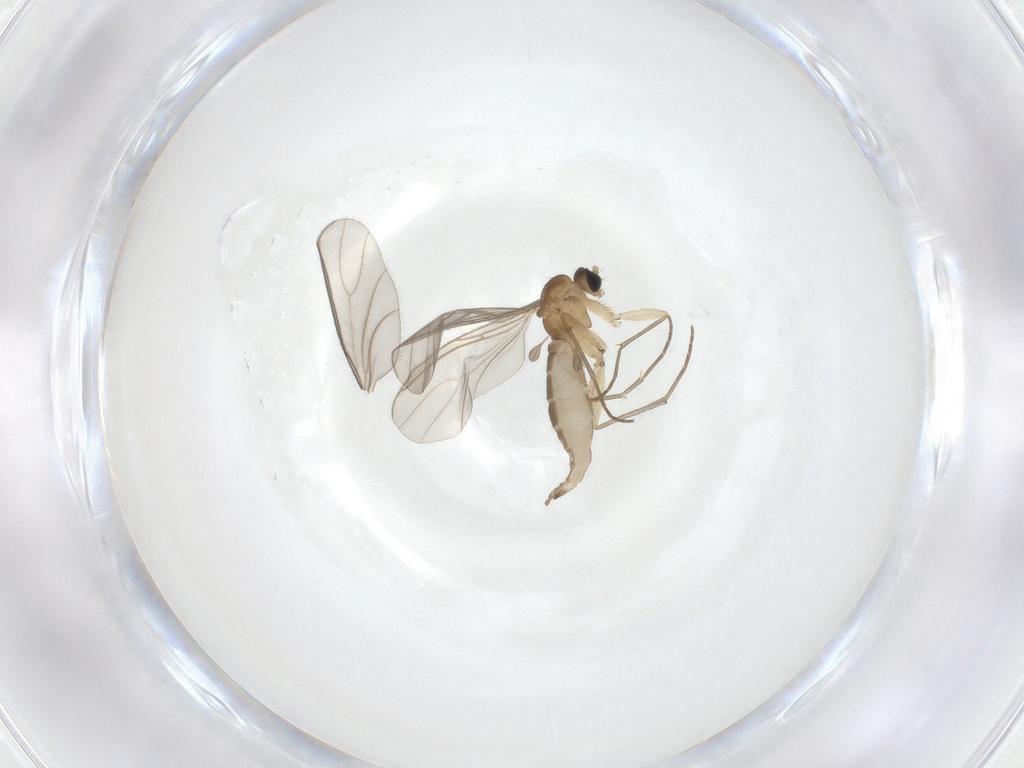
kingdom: Animalia
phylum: Arthropoda
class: Insecta
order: Diptera
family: Sciaridae
